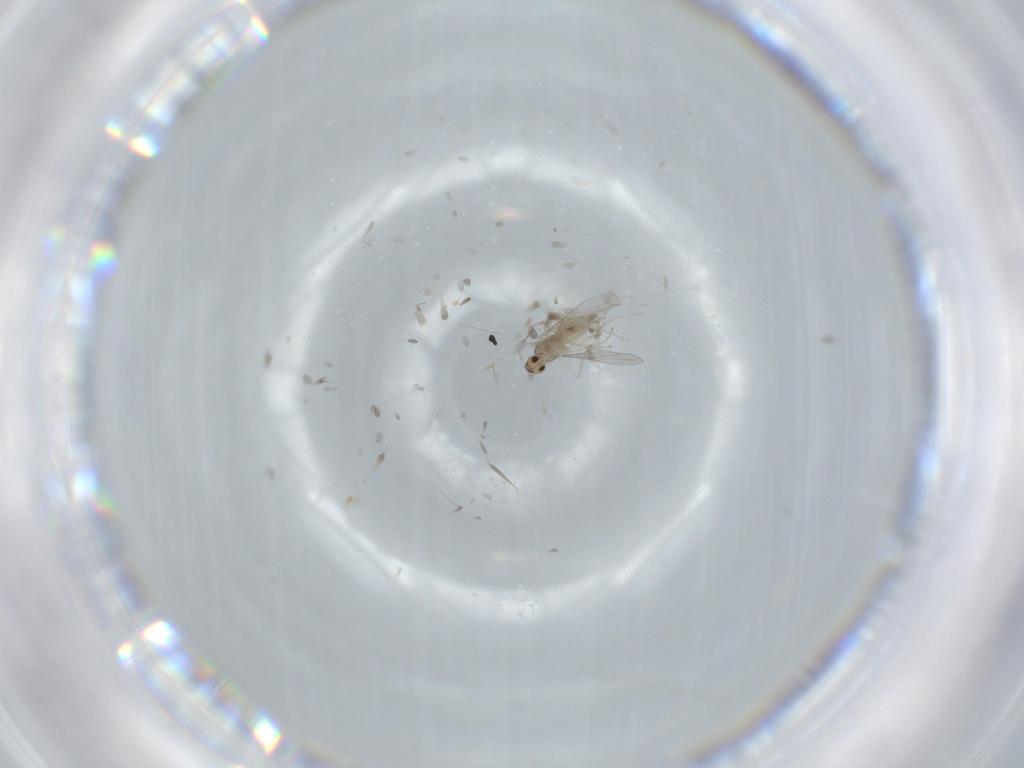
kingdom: Animalia
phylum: Arthropoda
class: Insecta
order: Diptera
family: Cecidomyiidae
